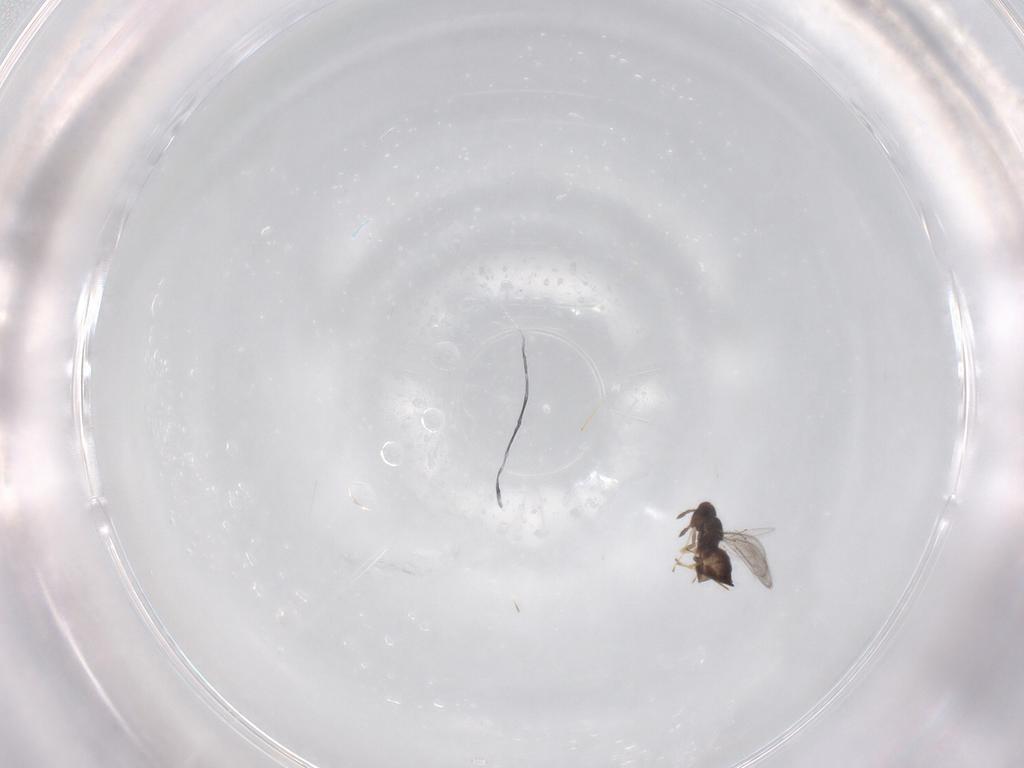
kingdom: Animalia
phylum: Arthropoda
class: Insecta
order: Hymenoptera
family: Eulophidae
